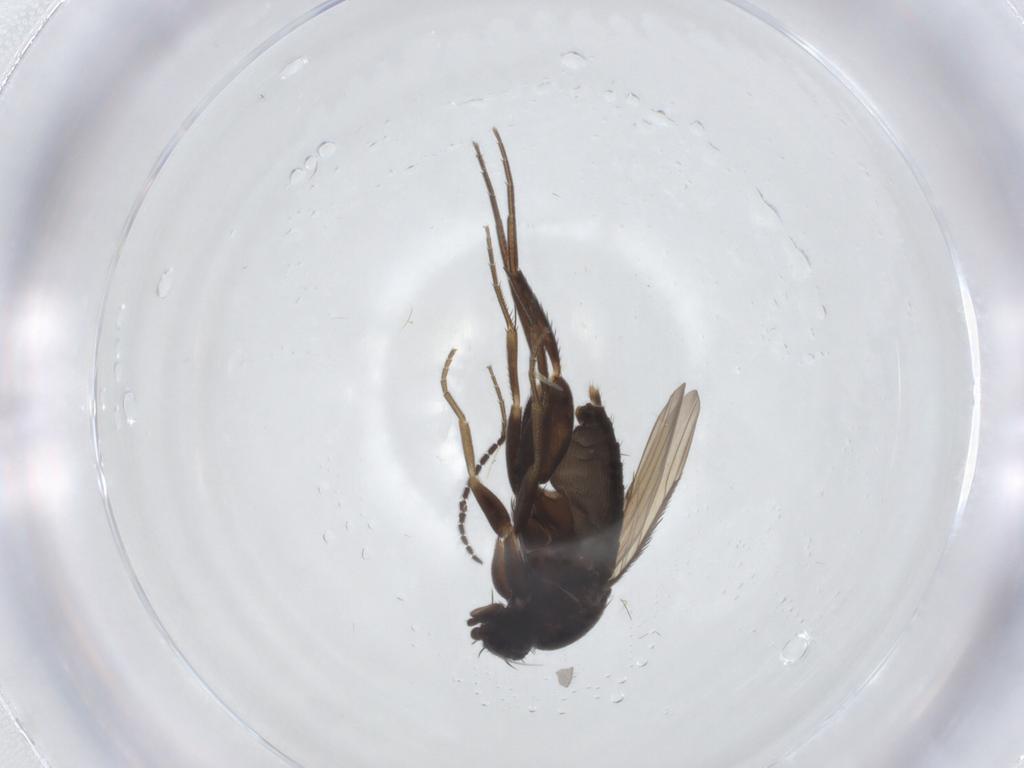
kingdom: Animalia
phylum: Arthropoda
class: Insecta
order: Diptera
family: Phoridae
